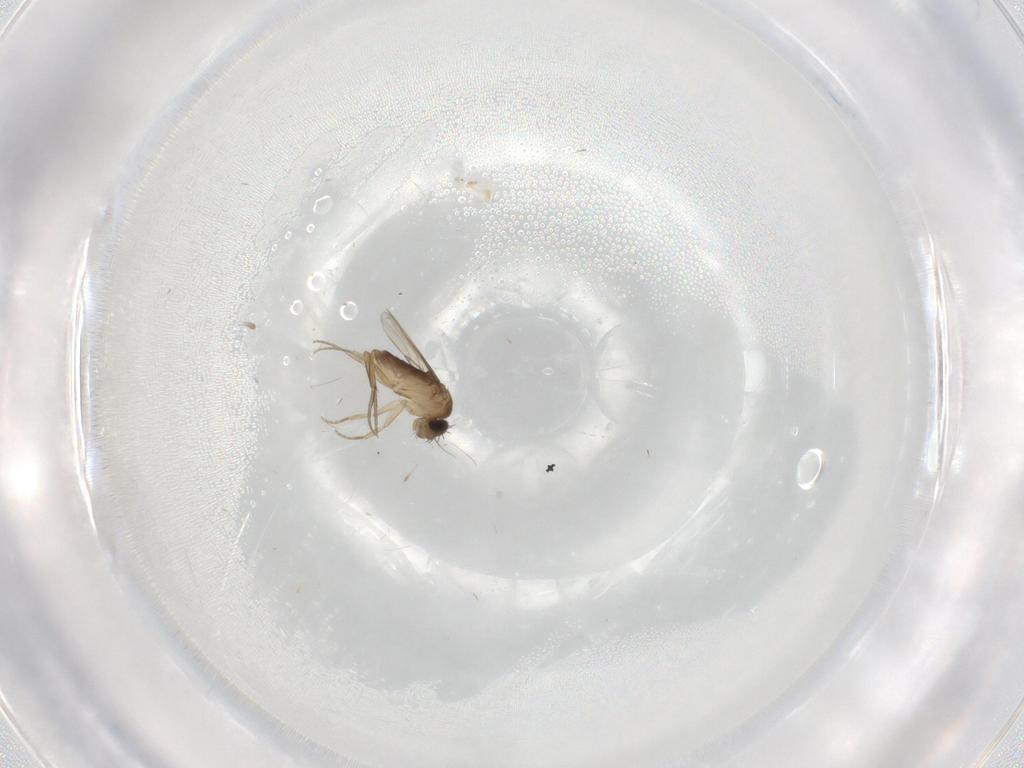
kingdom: Animalia
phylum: Arthropoda
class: Insecta
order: Diptera
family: Phoridae
